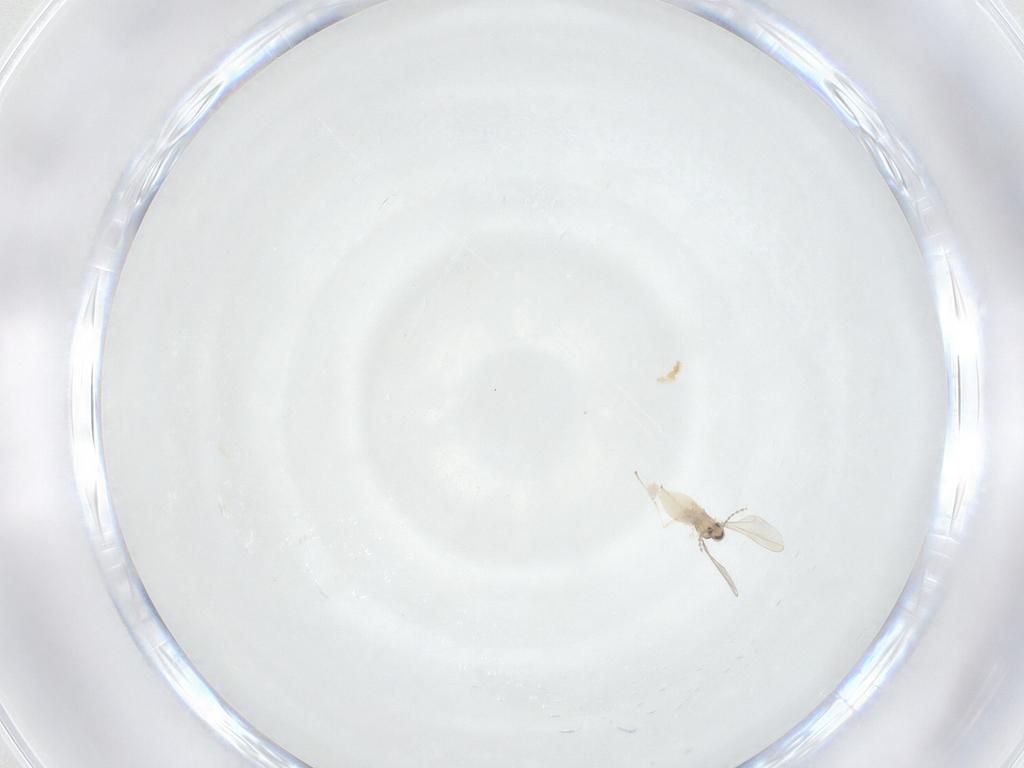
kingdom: Animalia
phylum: Arthropoda
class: Insecta
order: Diptera
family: Cecidomyiidae
